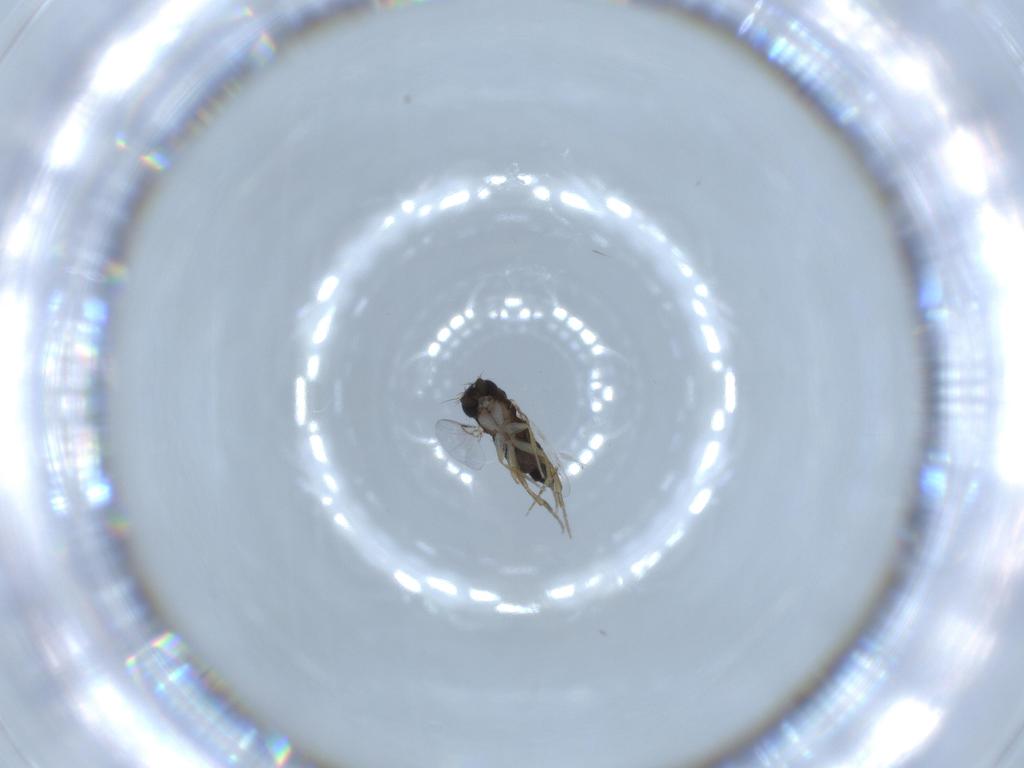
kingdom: Animalia
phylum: Arthropoda
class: Insecta
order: Diptera
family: Phoridae
